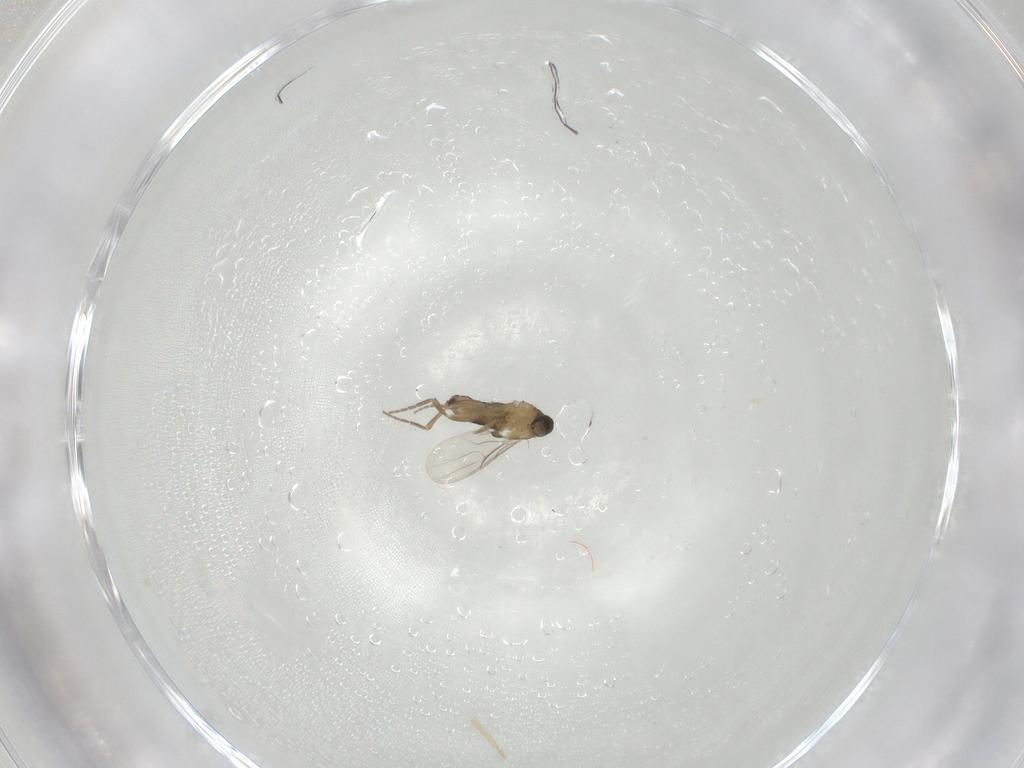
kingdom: Animalia
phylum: Arthropoda
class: Insecta
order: Diptera
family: Phoridae
